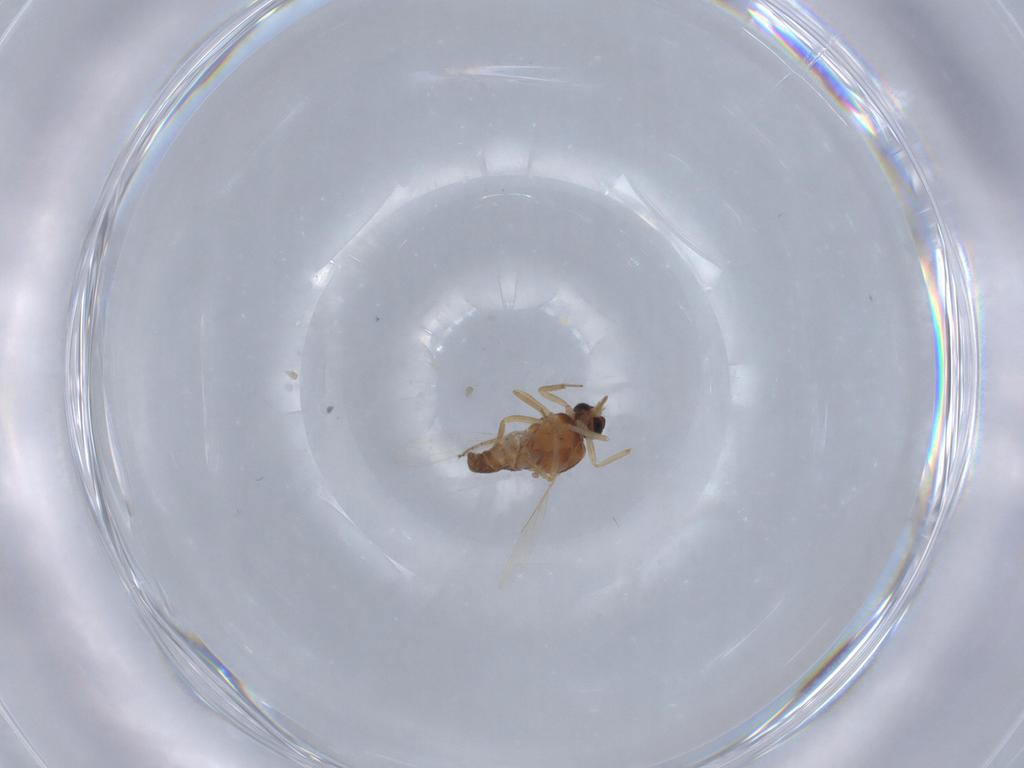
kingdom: Animalia
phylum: Arthropoda
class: Insecta
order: Diptera
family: Ceratopogonidae
